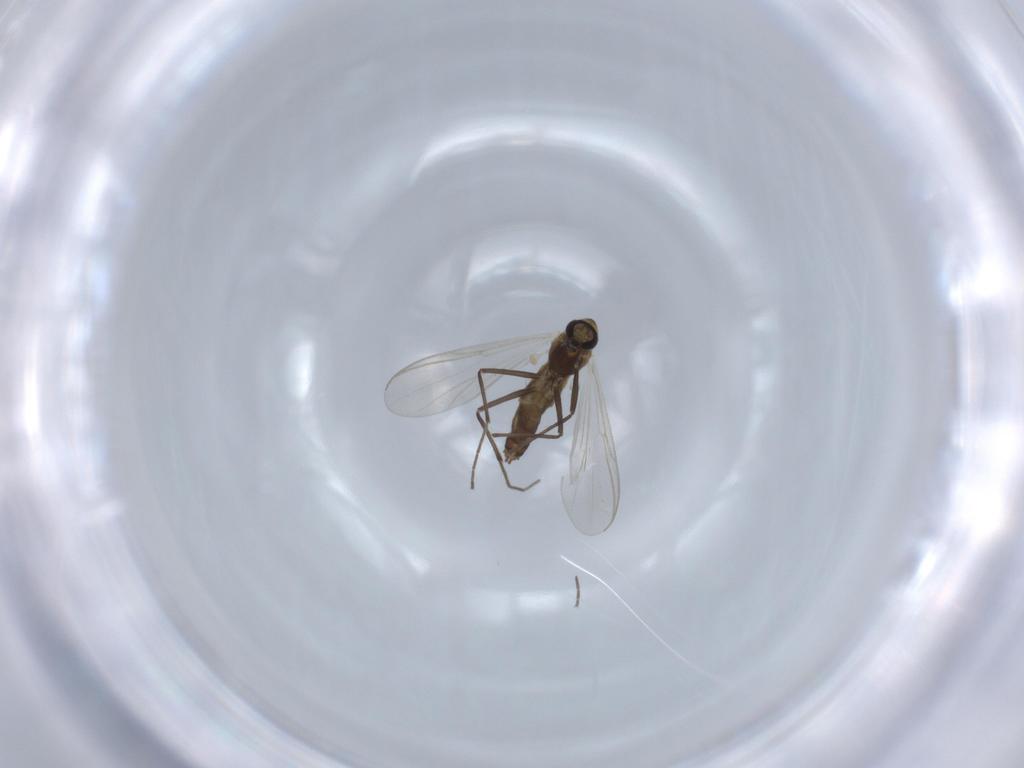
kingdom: Animalia
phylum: Arthropoda
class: Insecta
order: Diptera
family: Chironomidae
